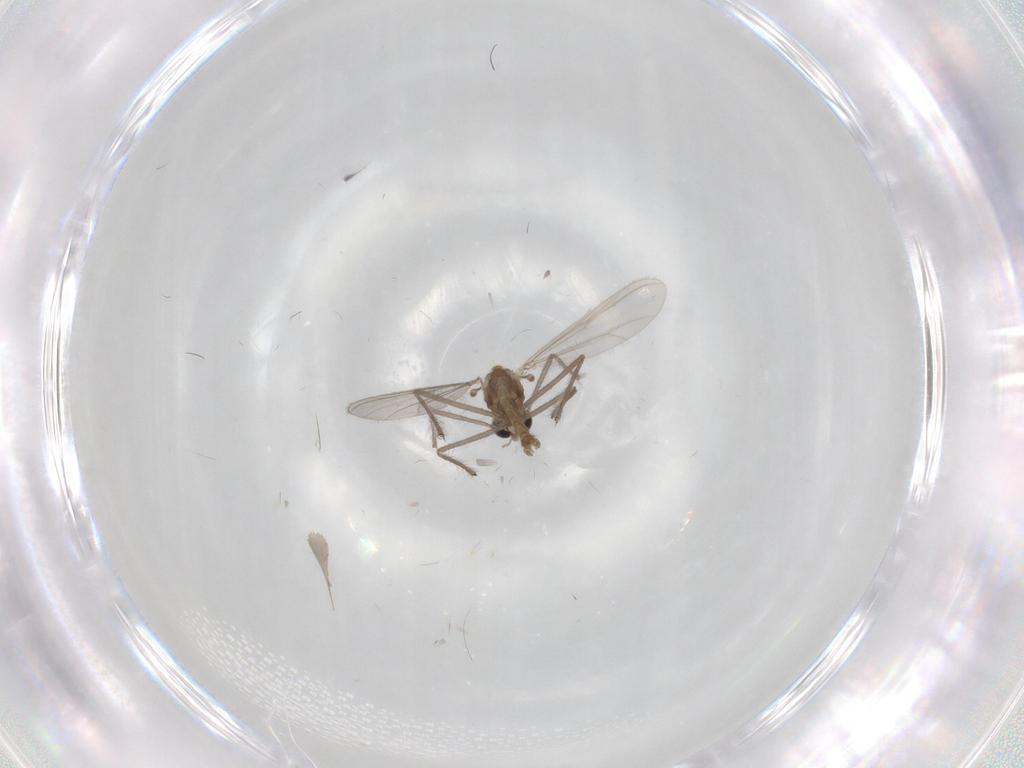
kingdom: Animalia
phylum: Arthropoda
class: Insecta
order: Diptera
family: Chironomidae
